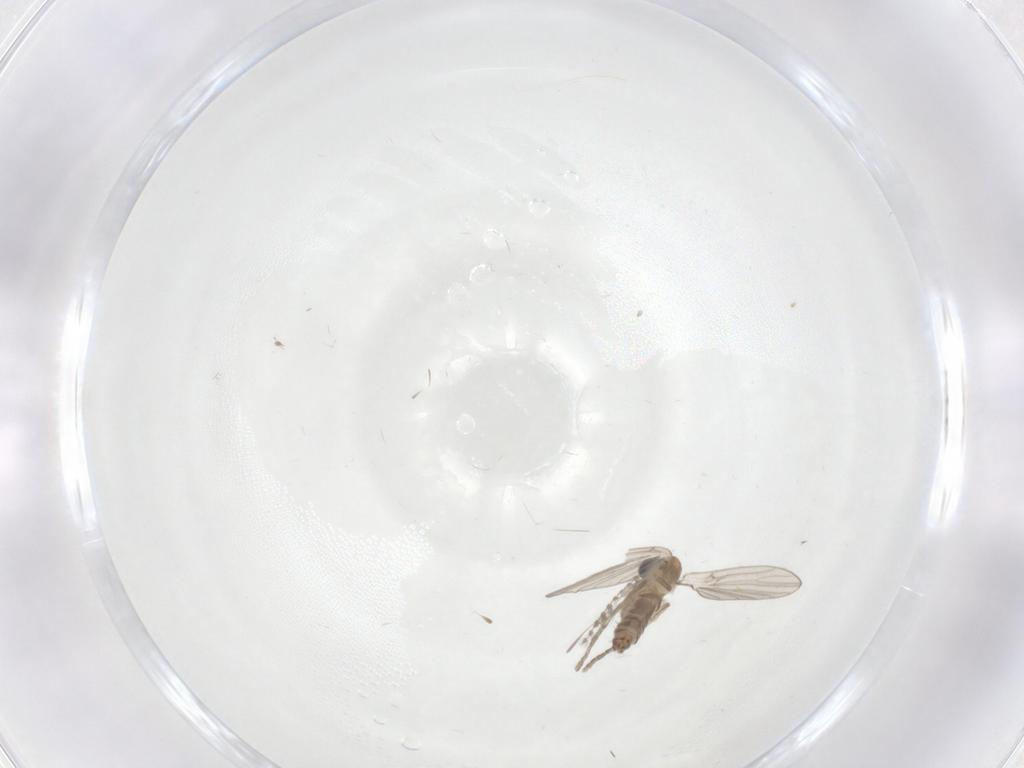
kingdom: Animalia
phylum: Arthropoda
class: Insecta
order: Diptera
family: Psychodidae
